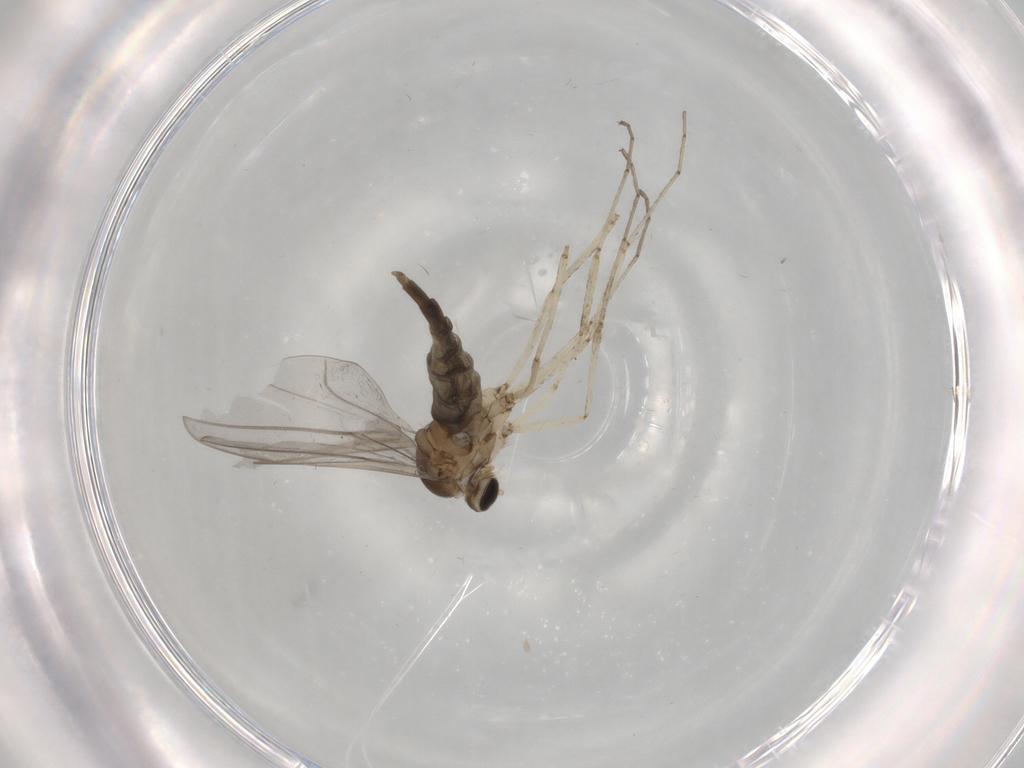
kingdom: Animalia
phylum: Arthropoda
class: Insecta
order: Diptera
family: Cecidomyiidae
